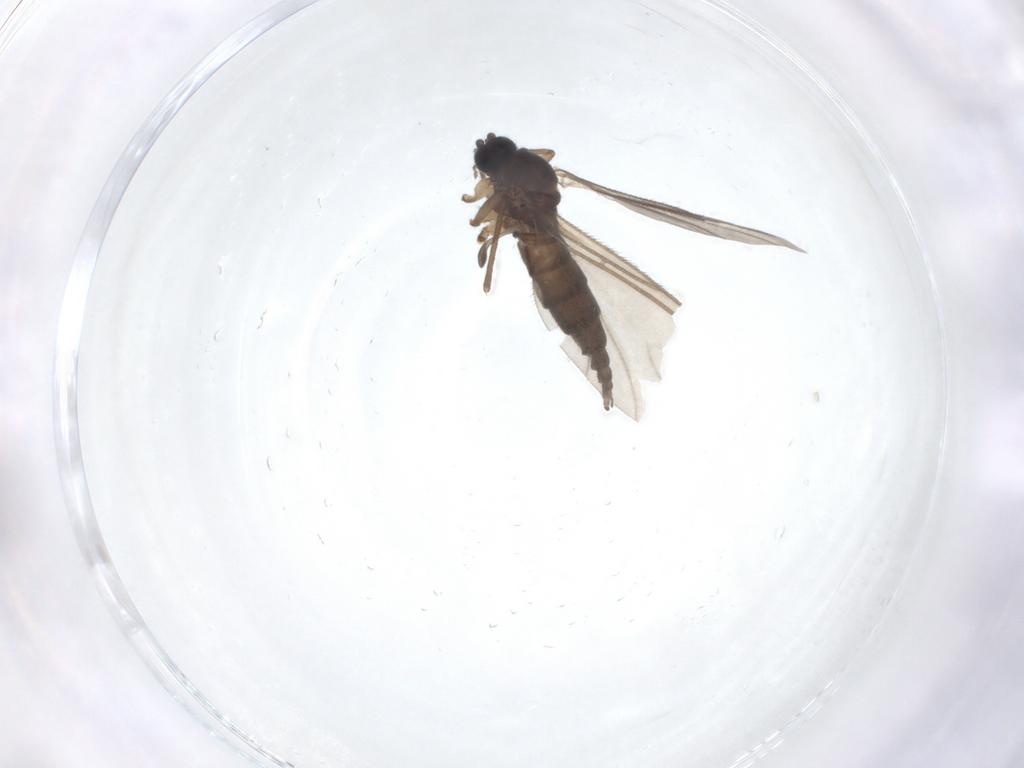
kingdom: Animalia
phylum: Arthropoda
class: Insecta
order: Diptera
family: Sciaridae
